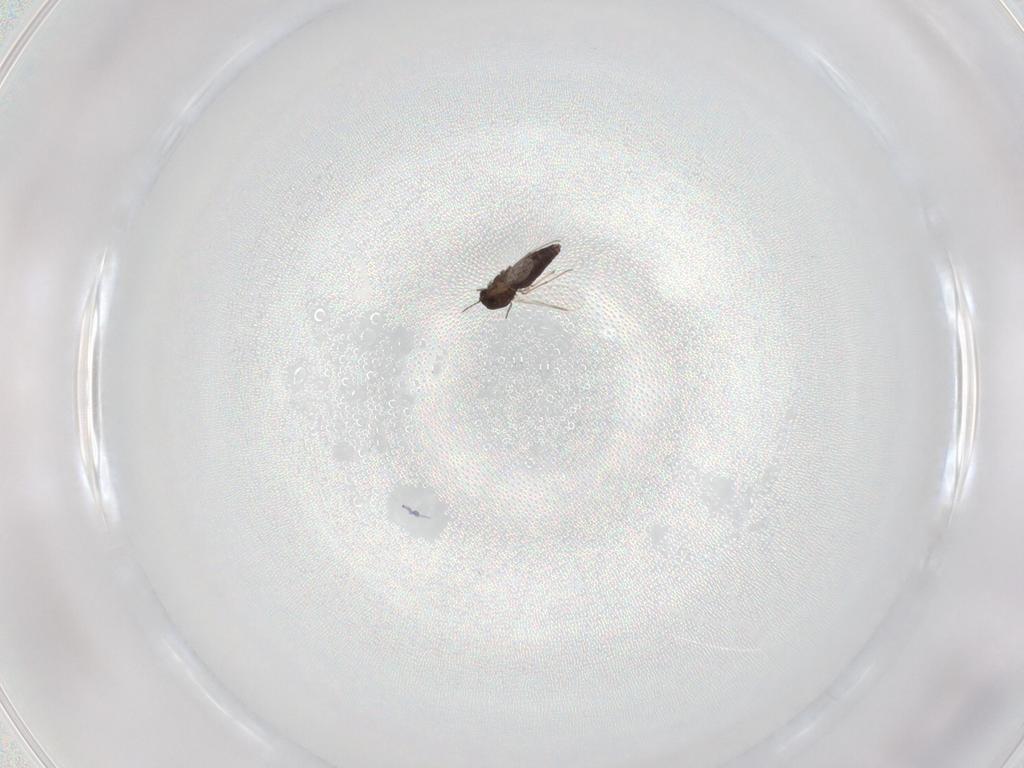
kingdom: Animalia
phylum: Arthropoda
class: Insecta
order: Diptera
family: Chironomidae
